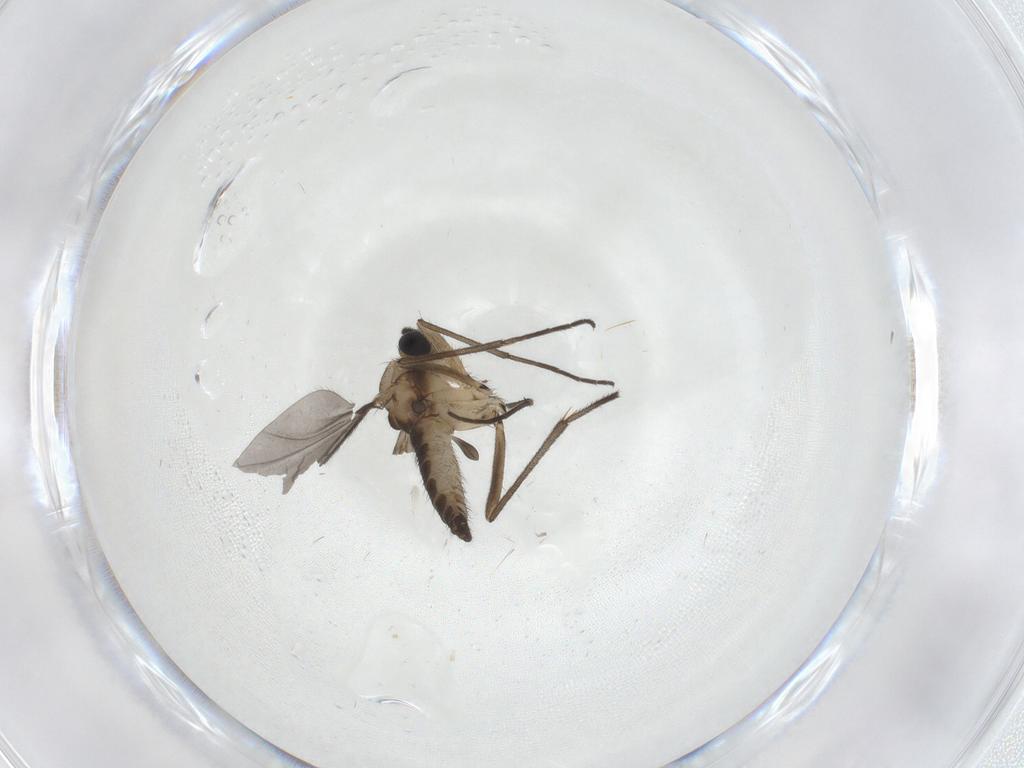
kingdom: Animalia
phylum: Arthropoda
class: Insecta
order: Diptera
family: Sciaridae
